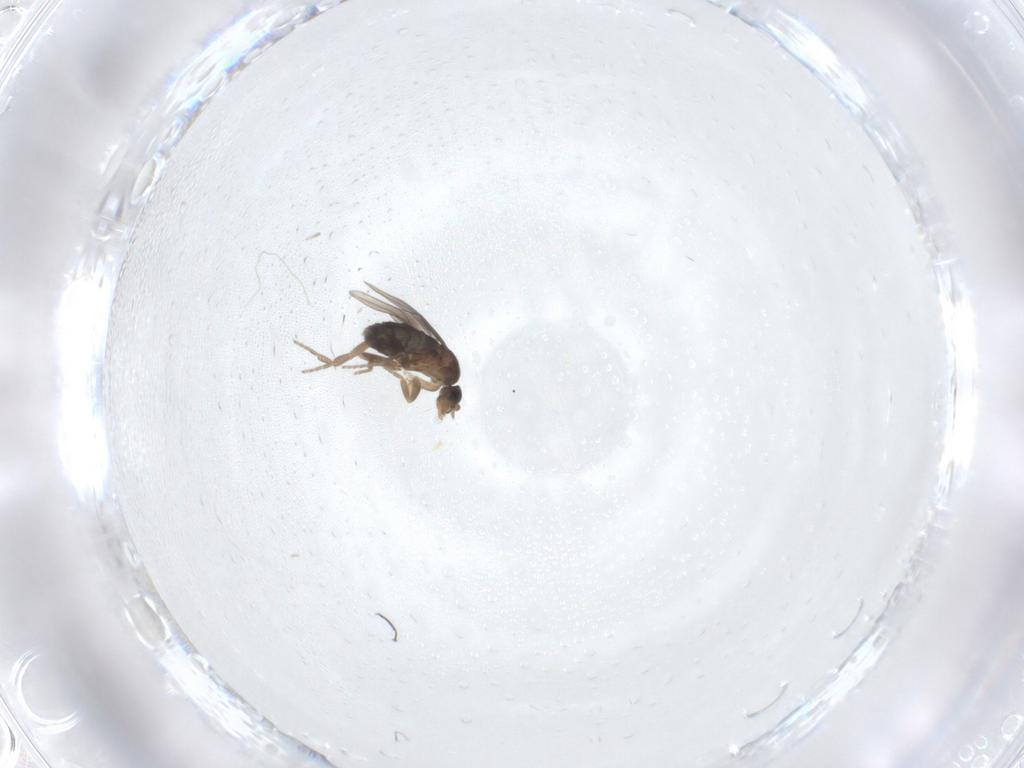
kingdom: Animalia
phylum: Arthropoda
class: Insecta
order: Diptera
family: Phoridae
